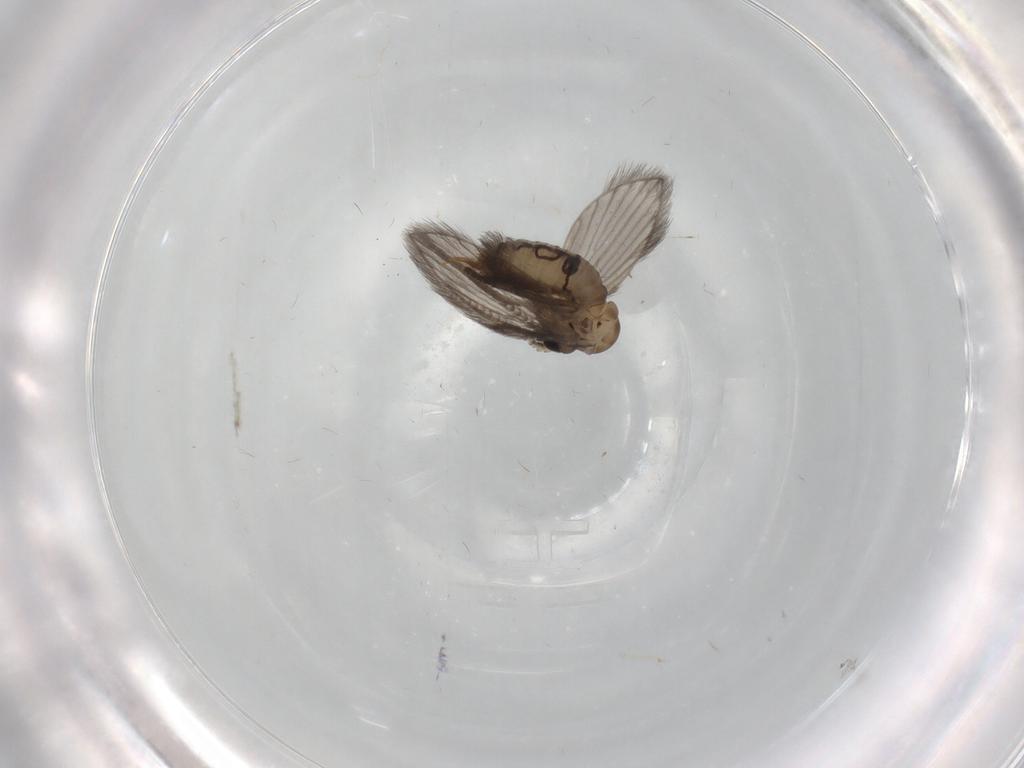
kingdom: Animalia
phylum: Arthropoda
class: Insecta
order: Diptera
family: Psychodidae
